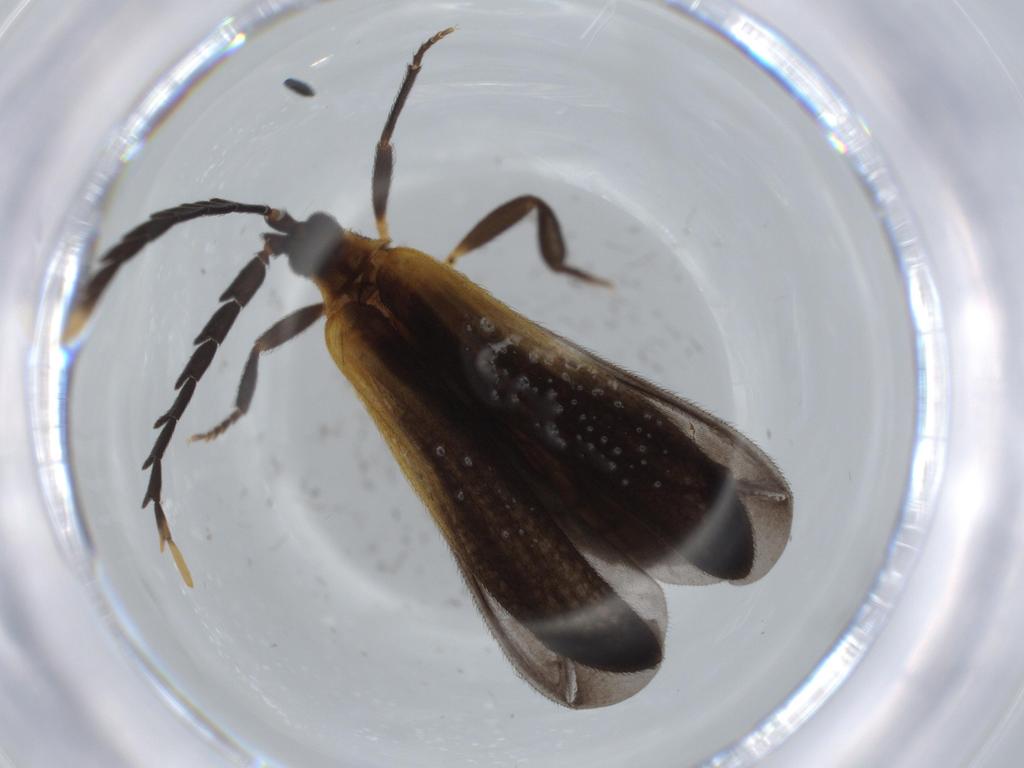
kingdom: Animalia
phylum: Arthropoda
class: Insecta
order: Coleoptera
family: Lycidae
